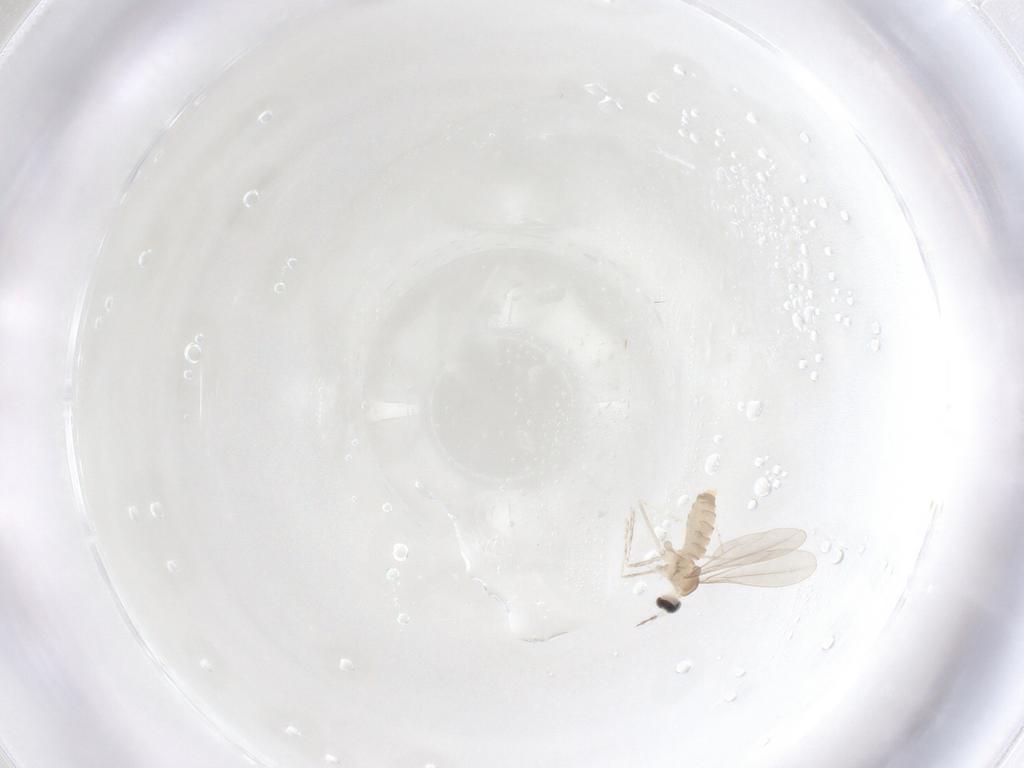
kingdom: Animalia
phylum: Arthropoda
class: Insecta
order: Diptera
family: Cecidomyiidae
